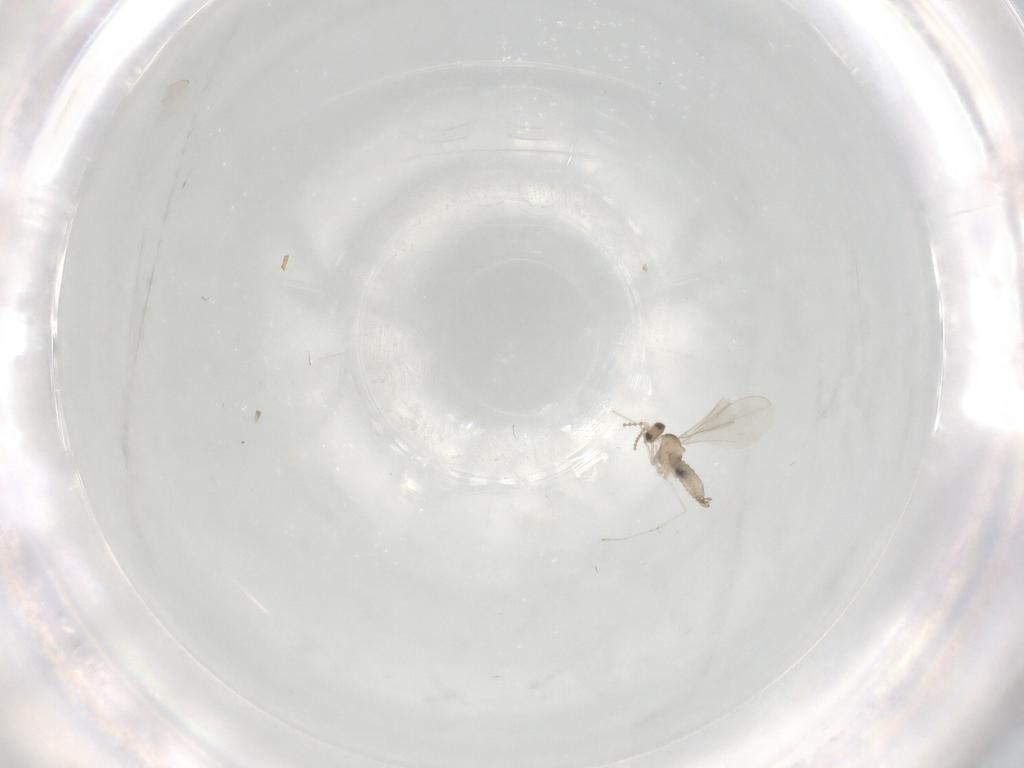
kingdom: Animalia
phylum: Arthropoda
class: Insecta
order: Diptera
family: Cecidomyiidae
